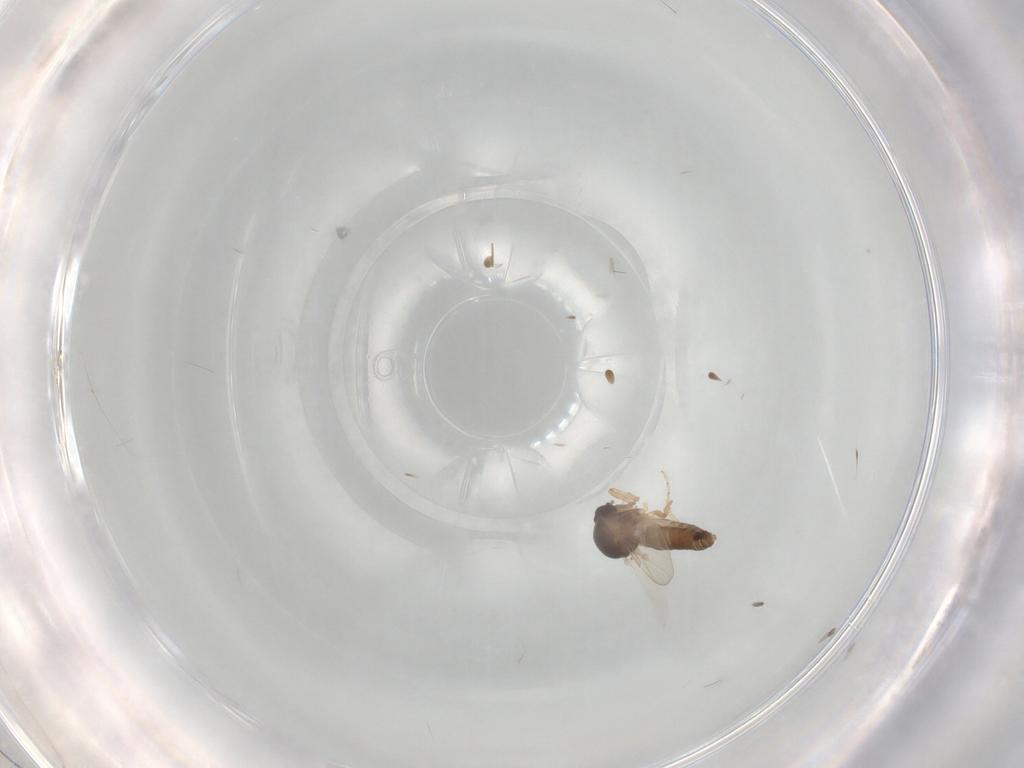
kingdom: Animalia
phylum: Arthropoda
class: Insecta
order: Diptera
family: Ceratopogonidae
